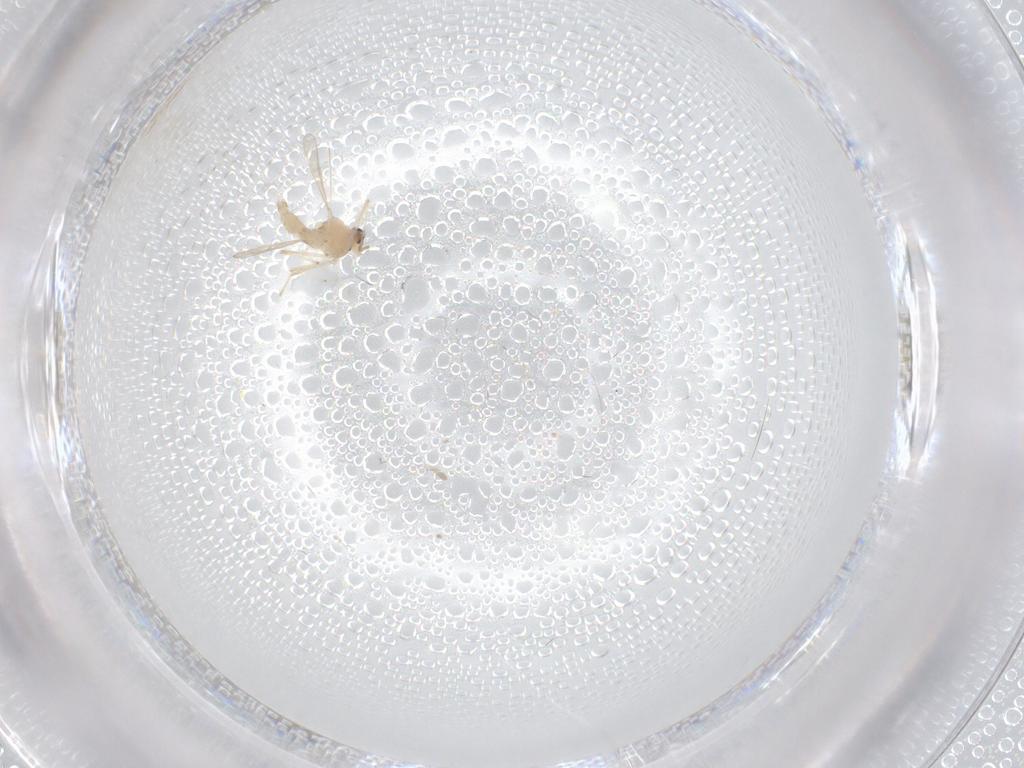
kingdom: Animalia
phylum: Arthropoda
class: Insecta
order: Diptera
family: Chironomidae
